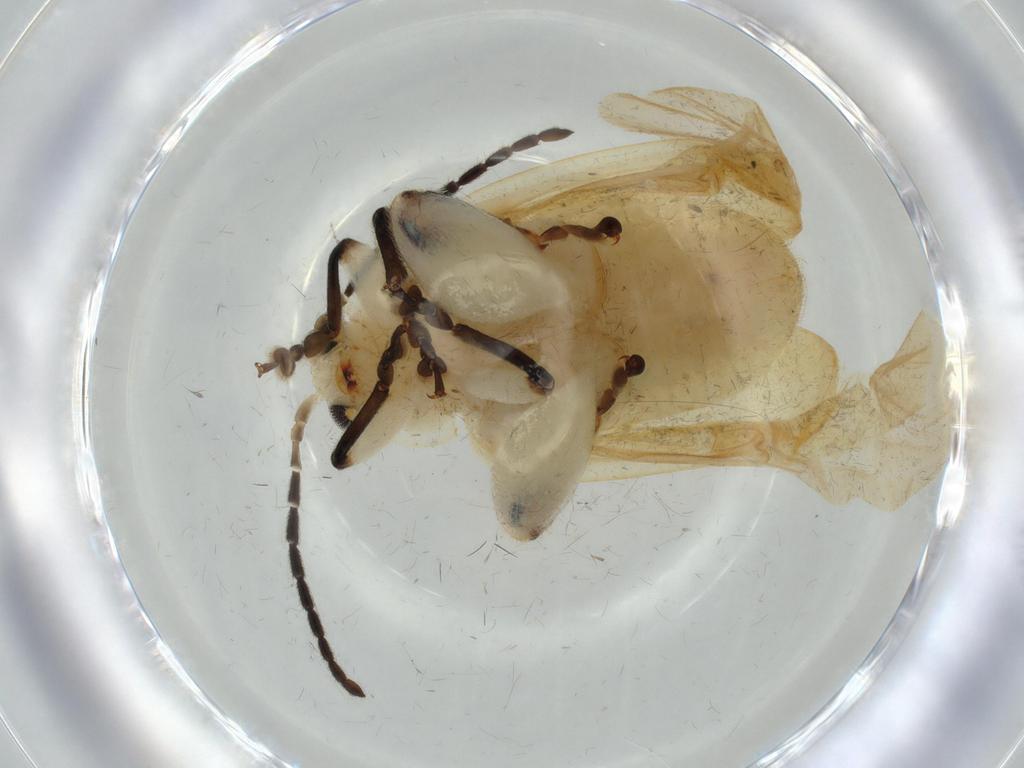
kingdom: Animalia
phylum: Arthropoda
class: Insecta
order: Coleoptera
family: Chrysomelidae
